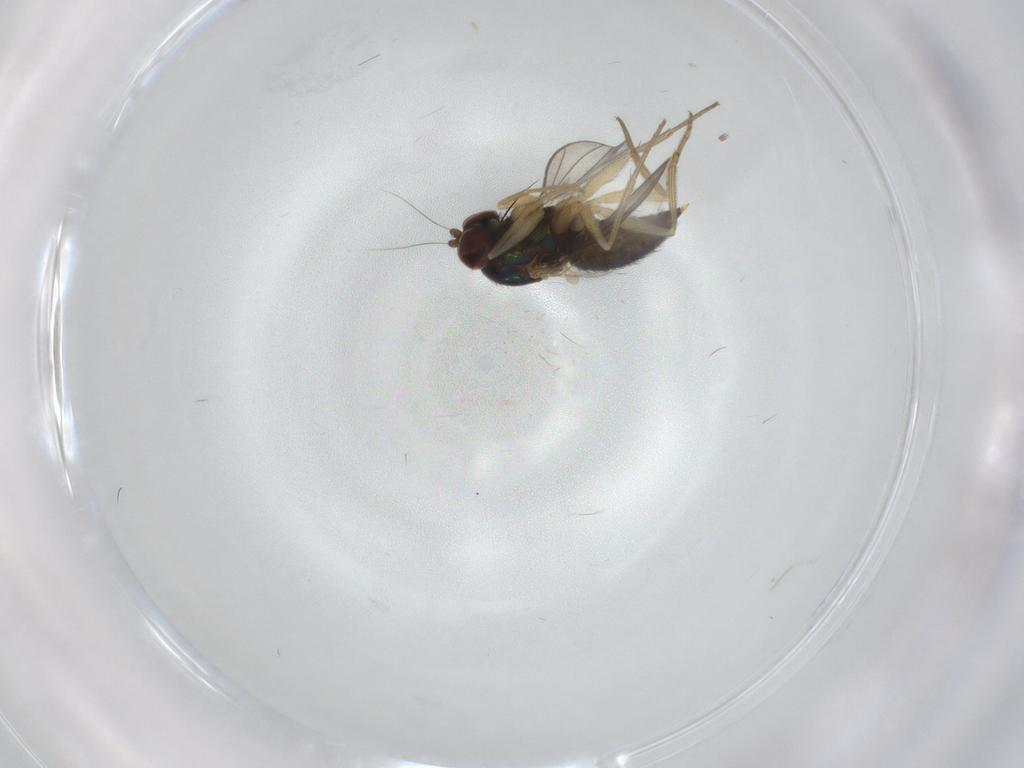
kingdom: Animalia
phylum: Arthropoda
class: Insecta
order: Diptera
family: Dolichopodidae
